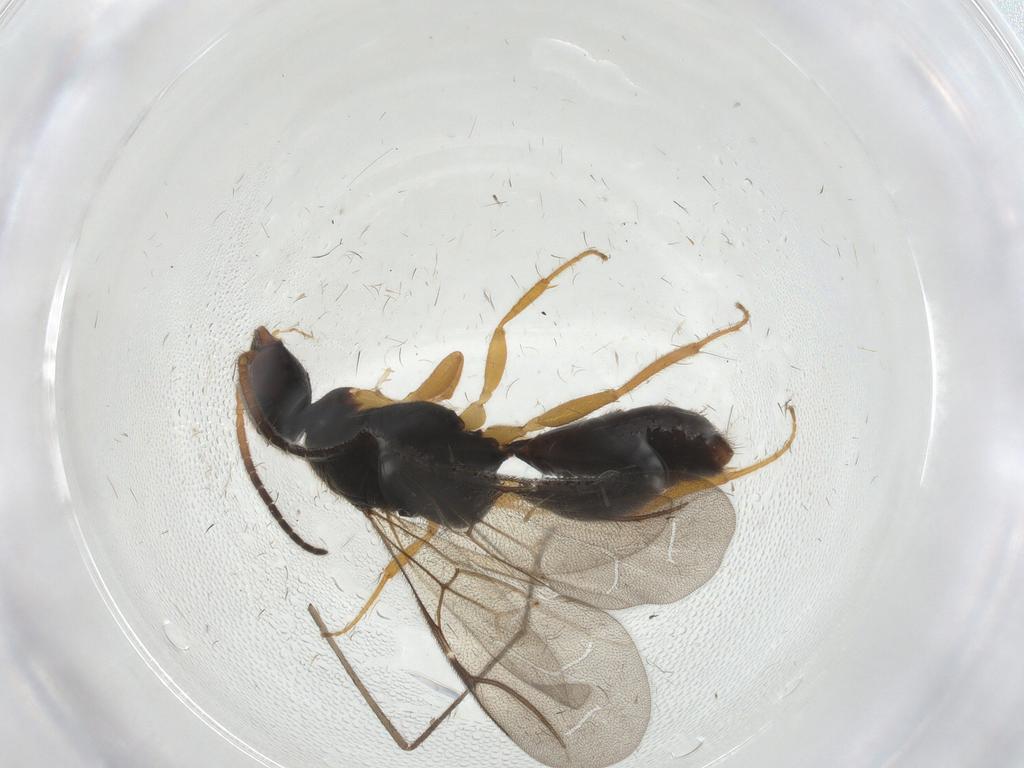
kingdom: Animalia
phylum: Arthropoda
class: Insecta
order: Hymenoptera
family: Bethylidae
